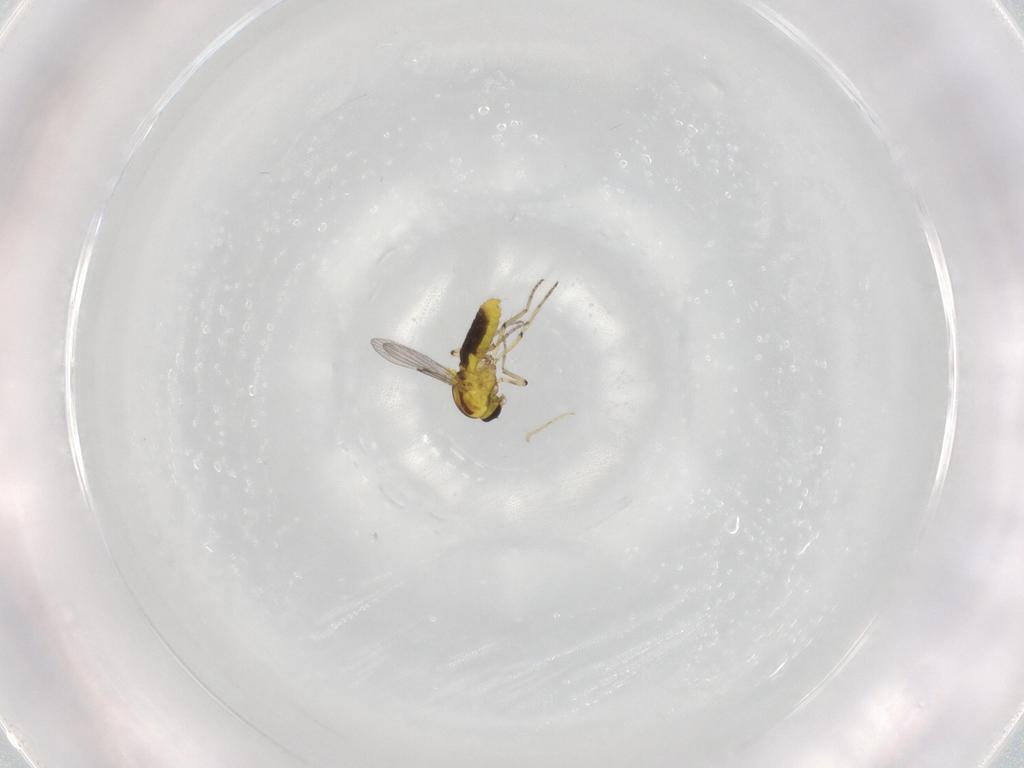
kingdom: Animalia
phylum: Arthropoda
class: Insecta
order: Diptera
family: Ceratopogonidae
